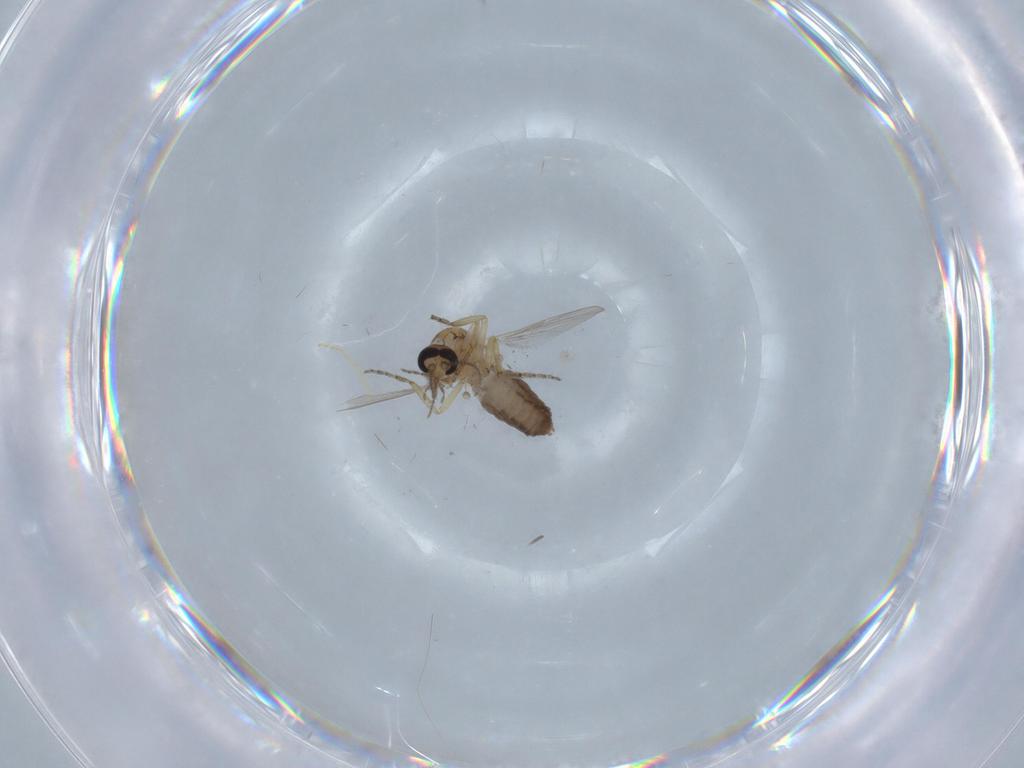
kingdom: Animalia
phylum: Arthropoda
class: Insecta
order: Diptera
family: Ceratopogonidae
